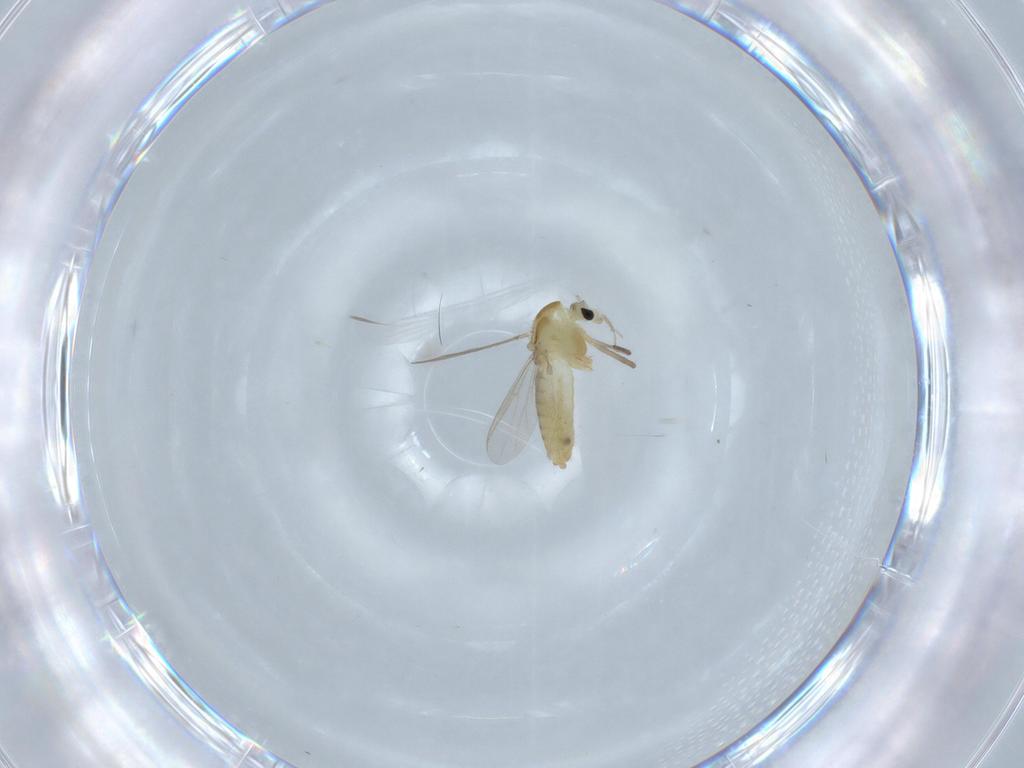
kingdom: Animalia
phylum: Arthropoda
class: Insecta
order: Diptera
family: Chironomidae
